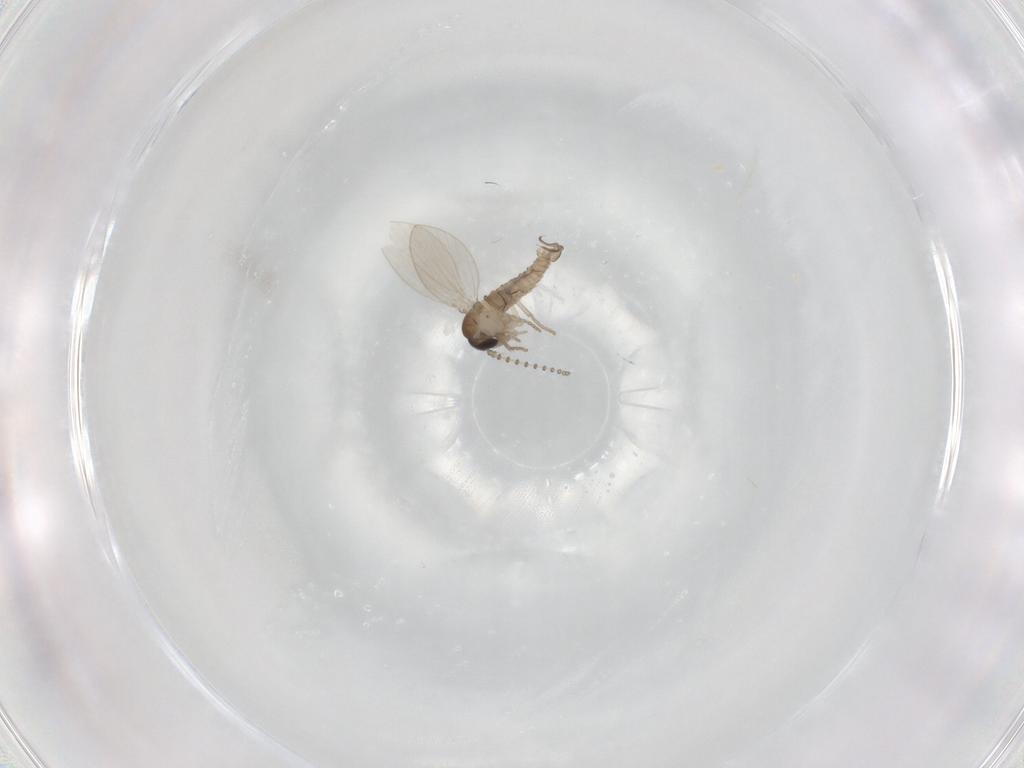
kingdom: Animalia
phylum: Arthropoda
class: Insecta
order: Diptera
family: Psychodidae
